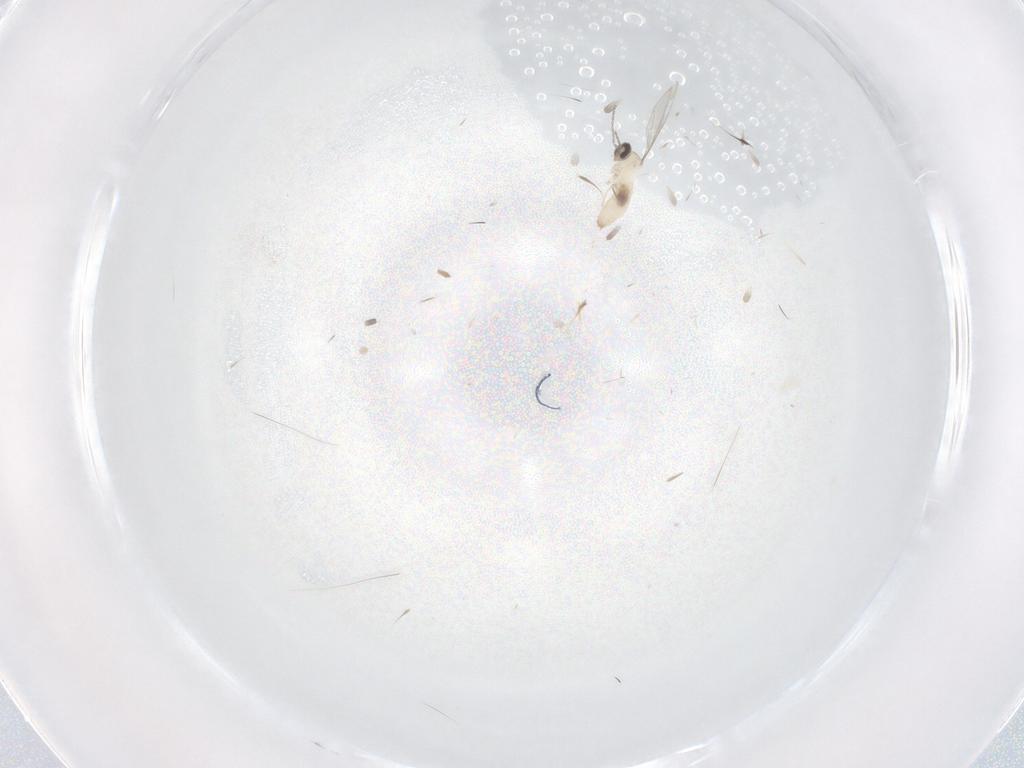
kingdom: Animalia
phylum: Arthropoda
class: Insecta
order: Diptera
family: Cecidomyiidae
